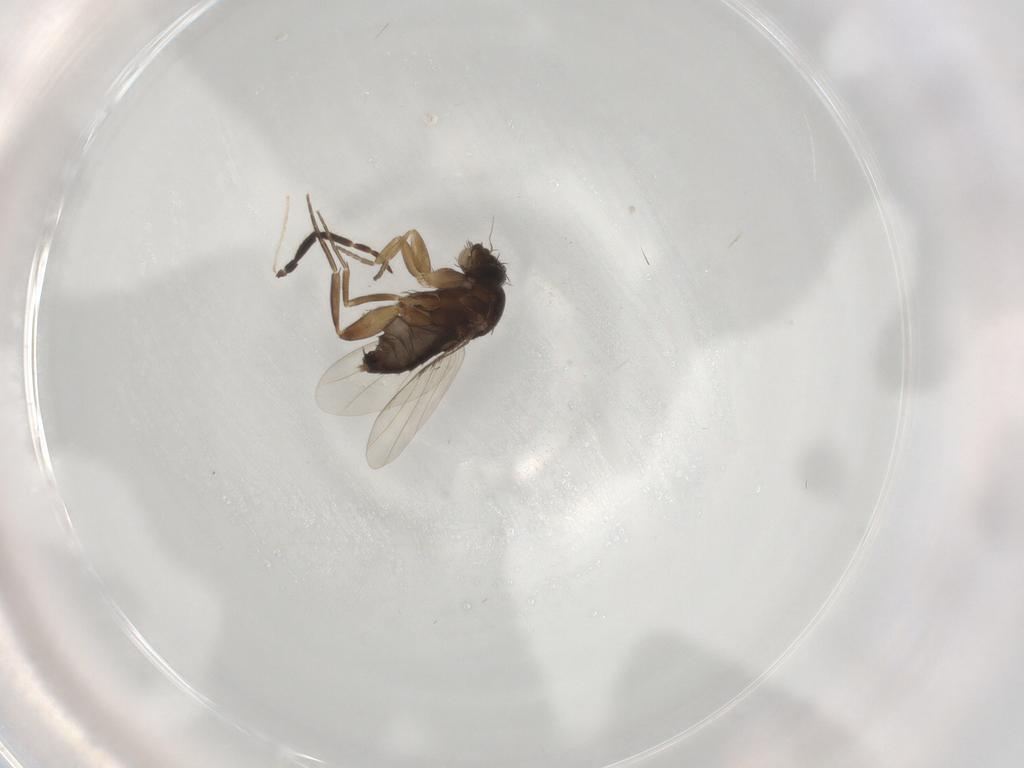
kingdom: Animalia
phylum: Arthropoda
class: Insecta
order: Diptera
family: Phoridae
